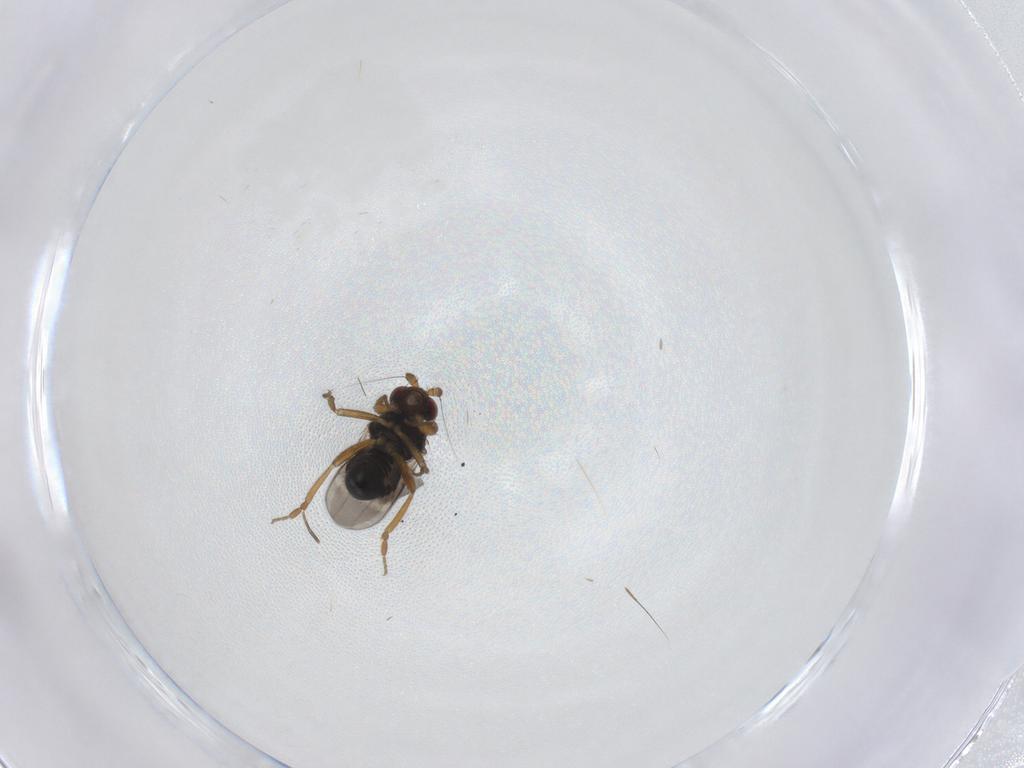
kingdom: Animalia
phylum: Arthropoda
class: Insecta
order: Diptera
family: Sphaeroceridae
